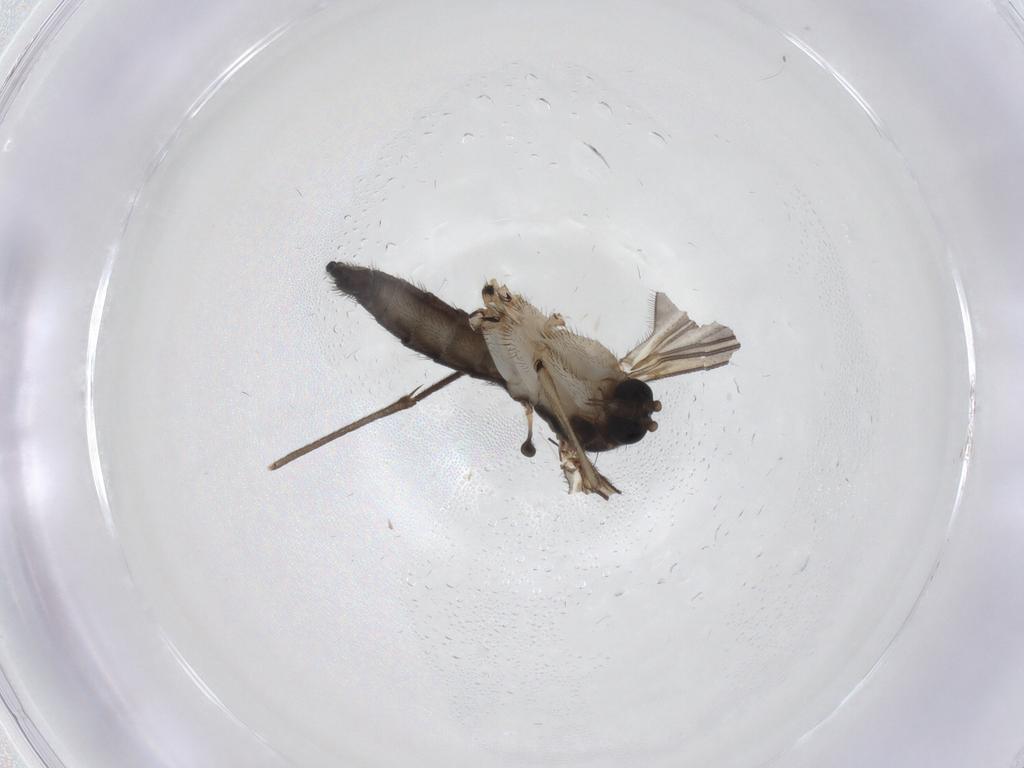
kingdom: Animalia
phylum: Arthropoda
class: Insecta
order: Diptera
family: Sciaridae
